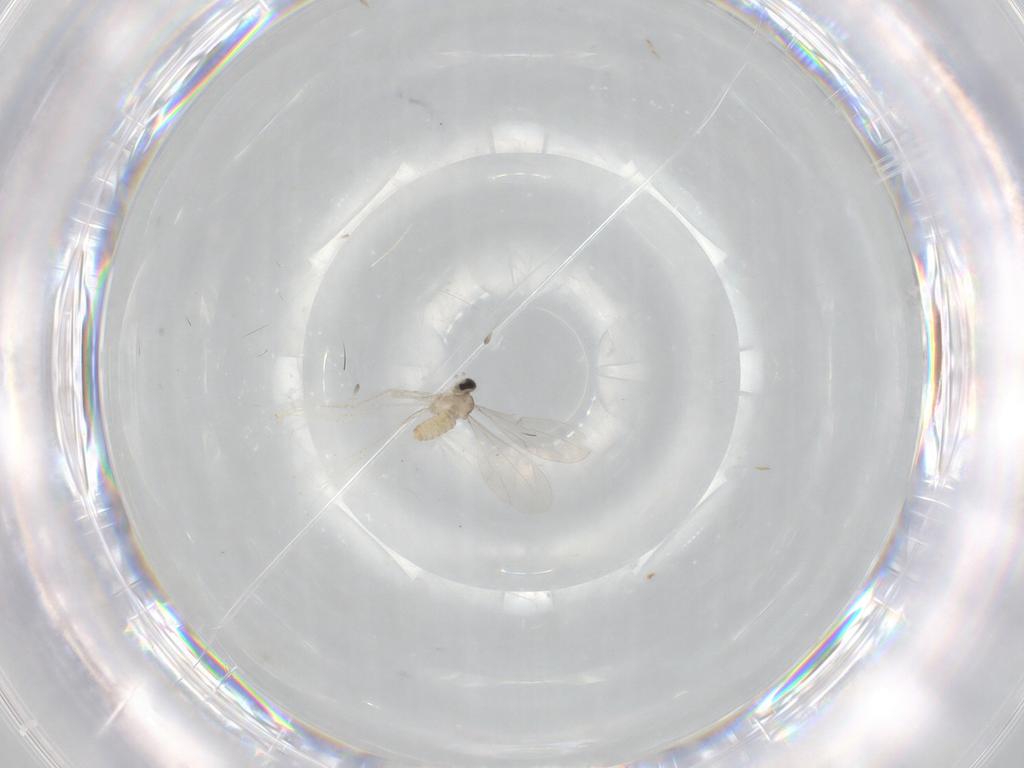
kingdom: Animalia
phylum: Arthropoda
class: Insecta
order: Diptera
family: Cecidomyiidae
